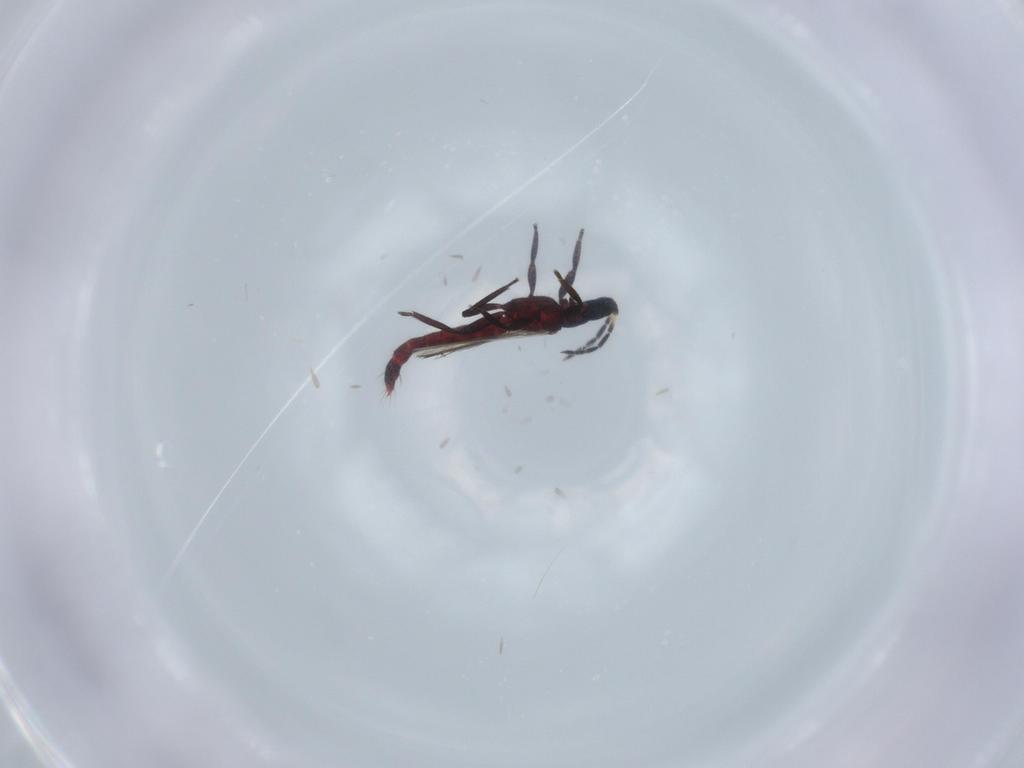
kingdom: Animalia
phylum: Arthropoda
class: Insecta
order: Thysanoptera
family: Aeolothripidae
